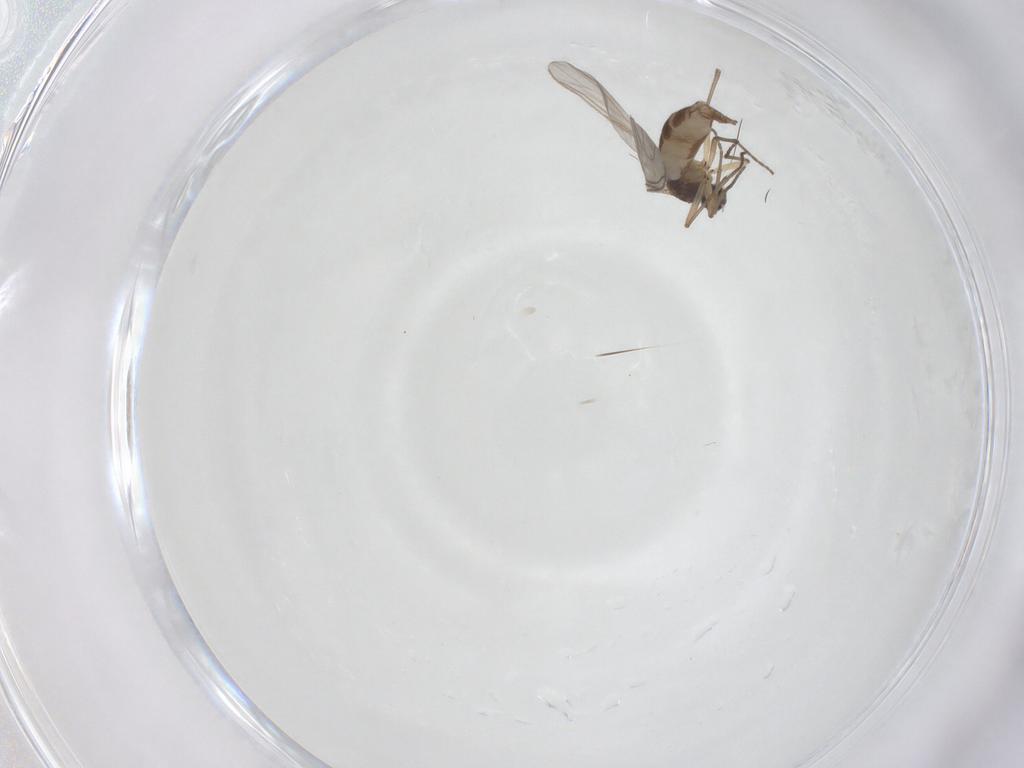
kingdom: Animalia
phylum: Arthropoda
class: Insecta
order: Diptera
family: Sciaridae
